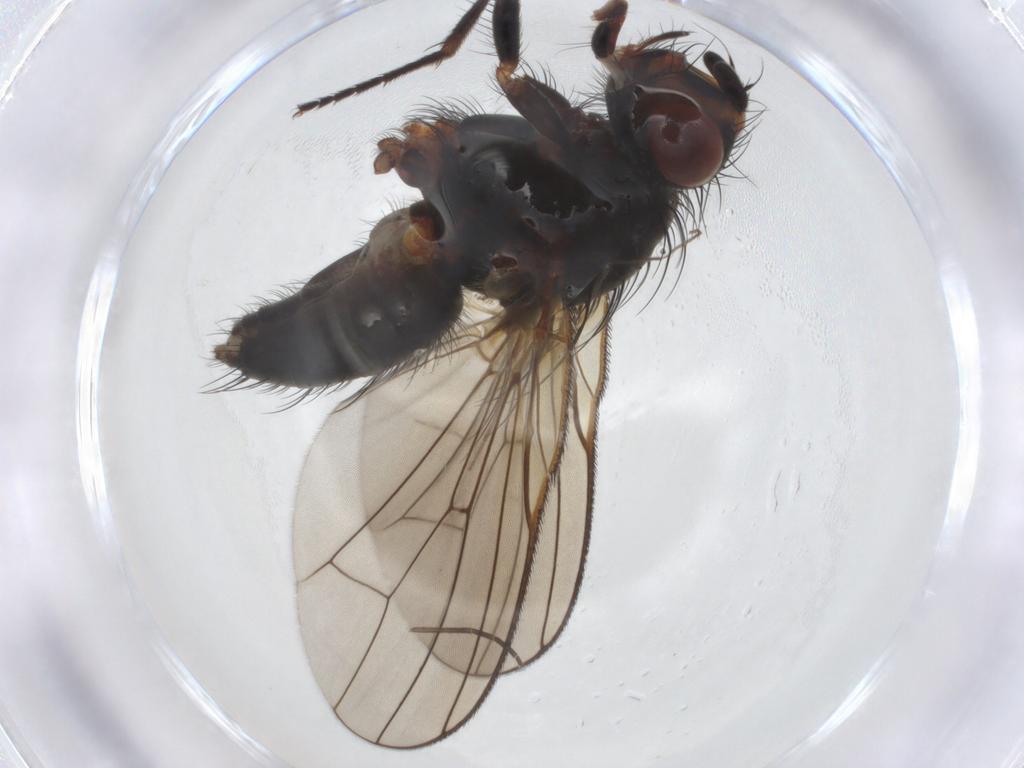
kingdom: Animalia
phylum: Arthropoda
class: Insecta
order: Diptera
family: Anthomyiidae
